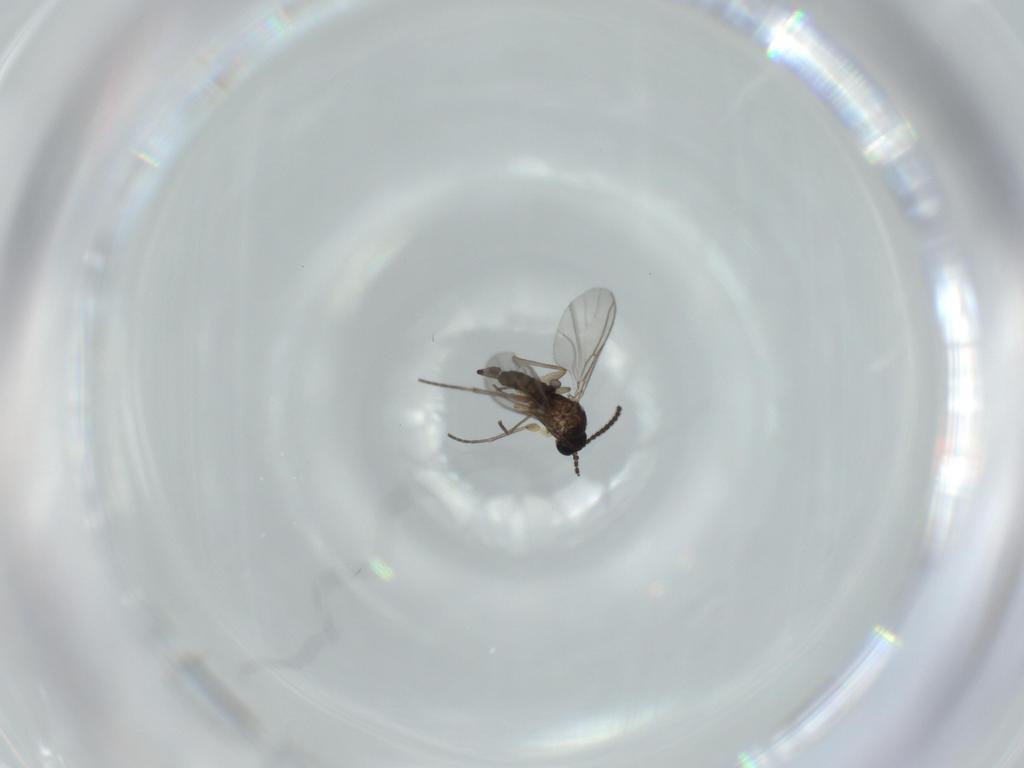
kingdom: Animalia
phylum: Arthropoda
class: Insecta
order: Diptera
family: Sciaridae
